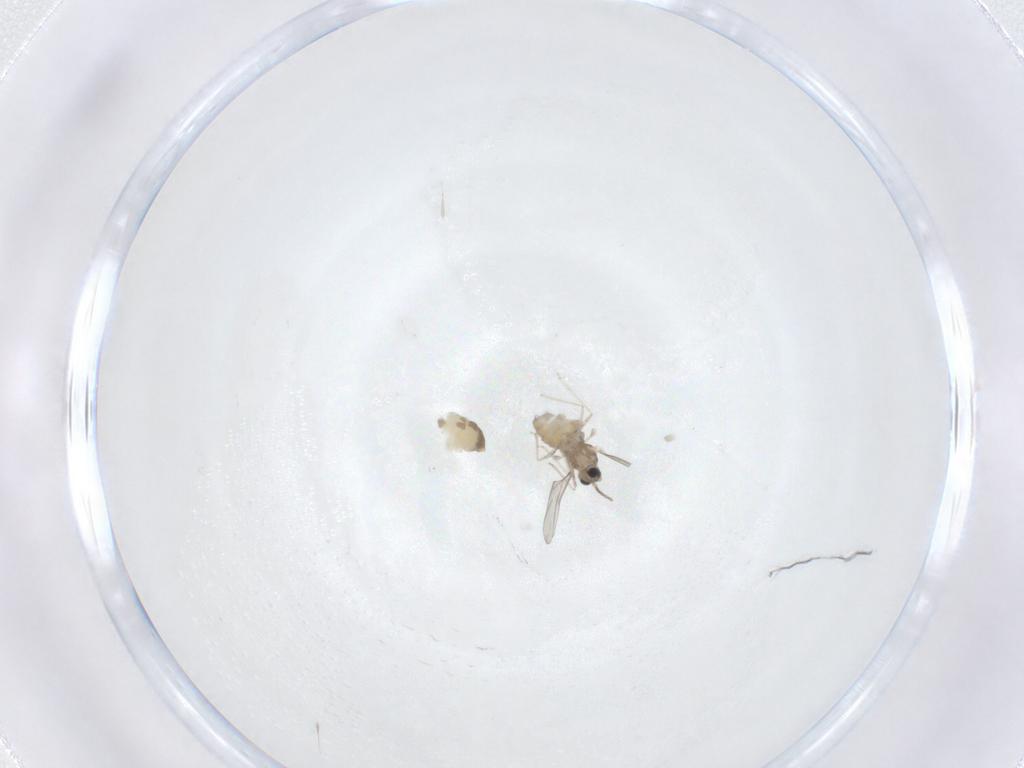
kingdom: Animalia
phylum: Arthropoda
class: Insecta
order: Diptera
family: Cecidomyiidae
